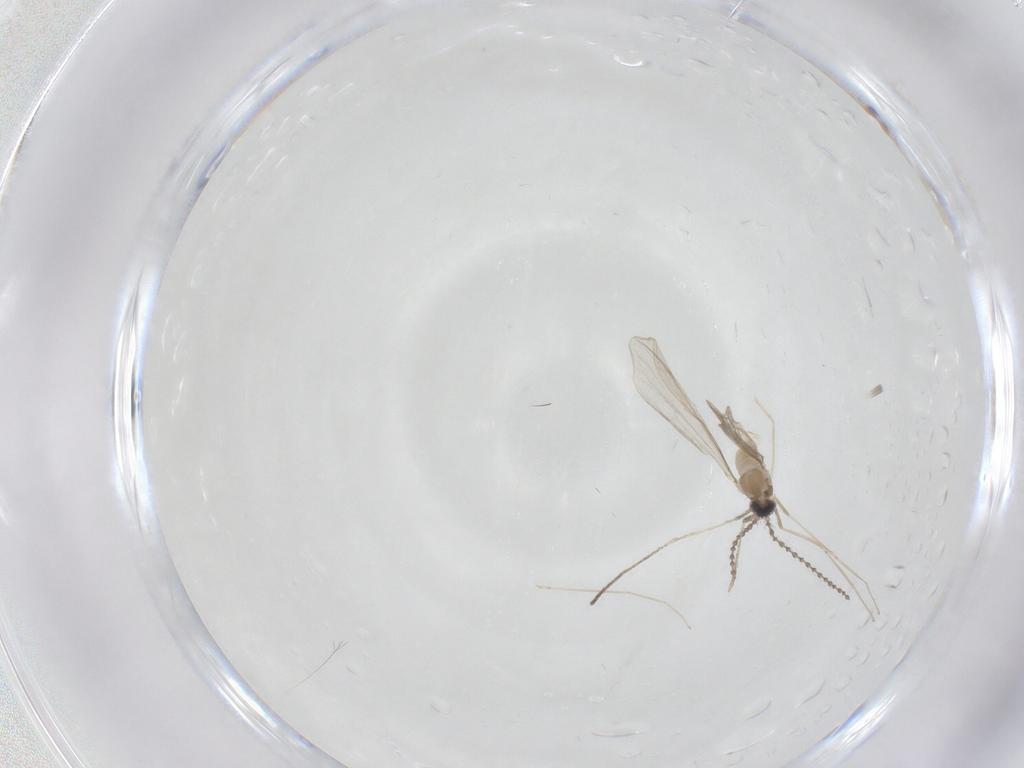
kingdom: Animalia
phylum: Arthropoda
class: Insecta
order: Diptera
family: Cecidomyiidae
